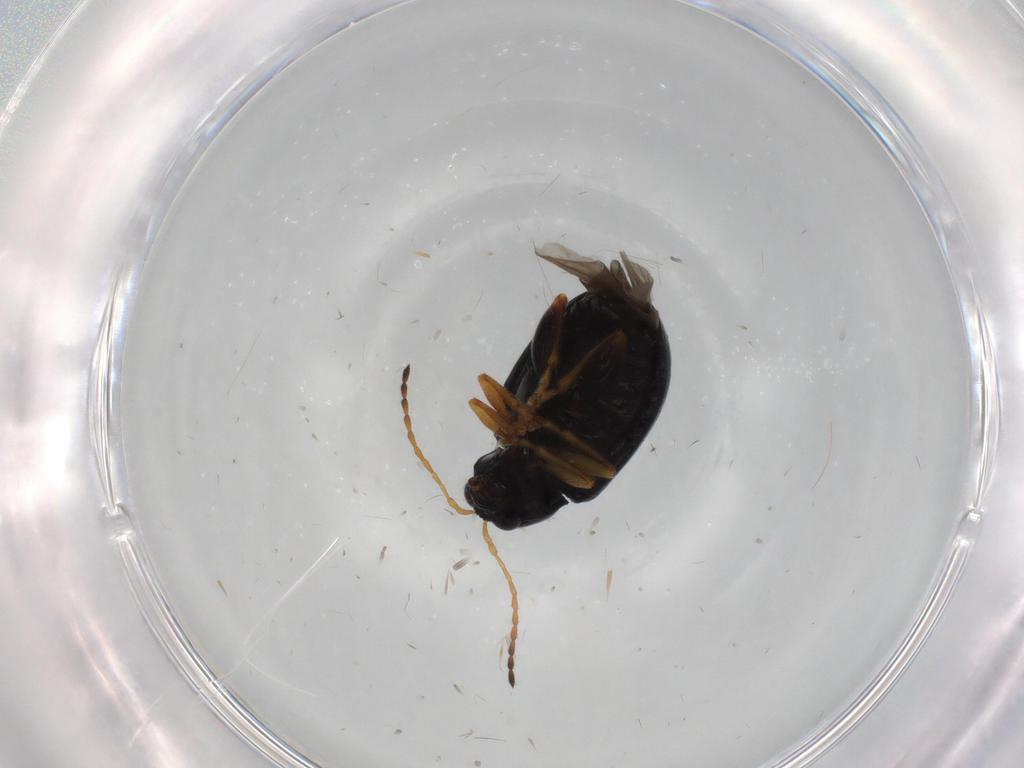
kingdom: Animalia
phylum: Arthropoda
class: Insecta
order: Coleoptera
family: Chrysomelidae
